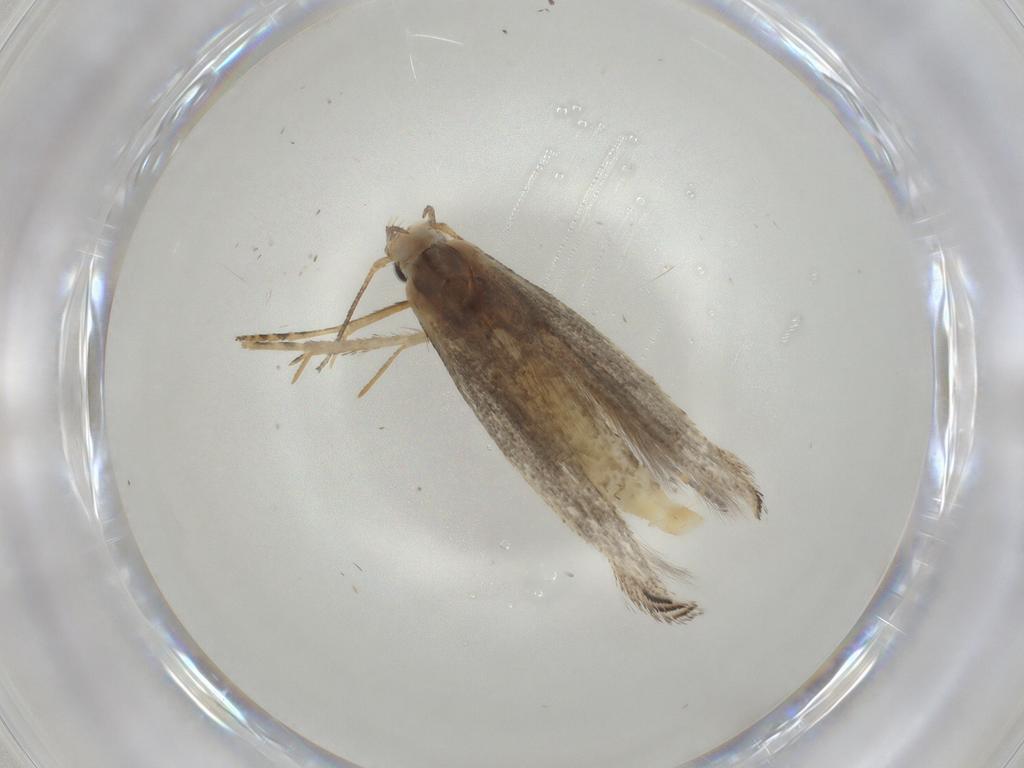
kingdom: Animalia
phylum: Arthropoda
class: Insecta
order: Lepidoptera
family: Gelechiidae
